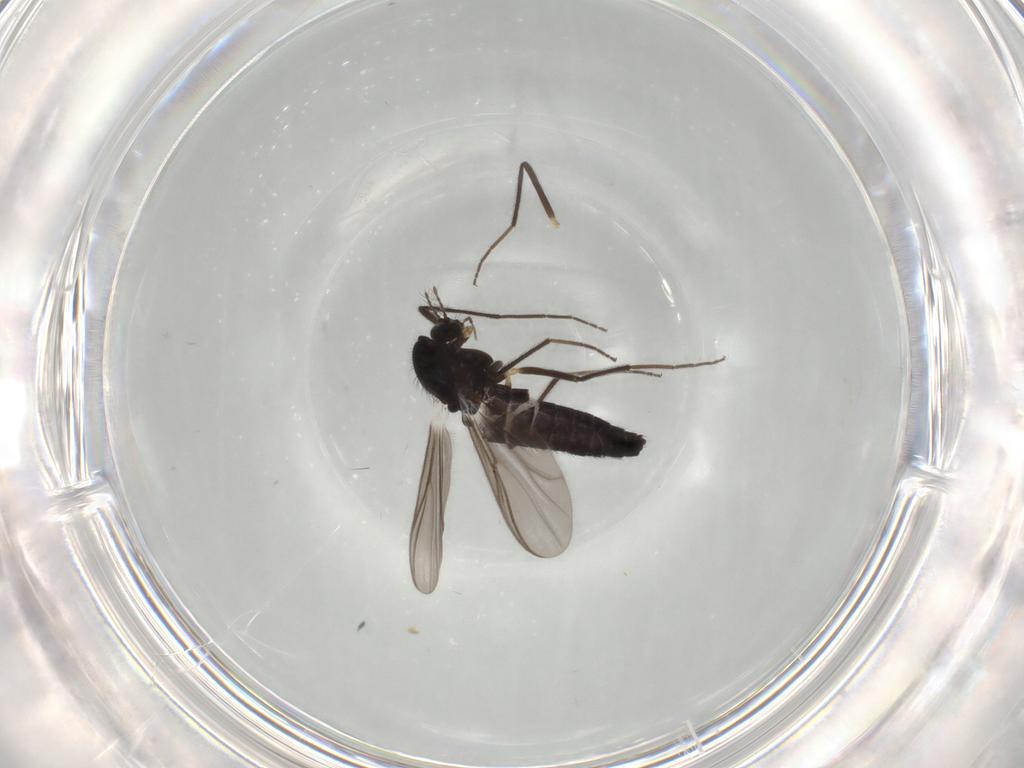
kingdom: Animalia
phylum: Arthropoda
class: Insecta
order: Diptera
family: Chironomidae
